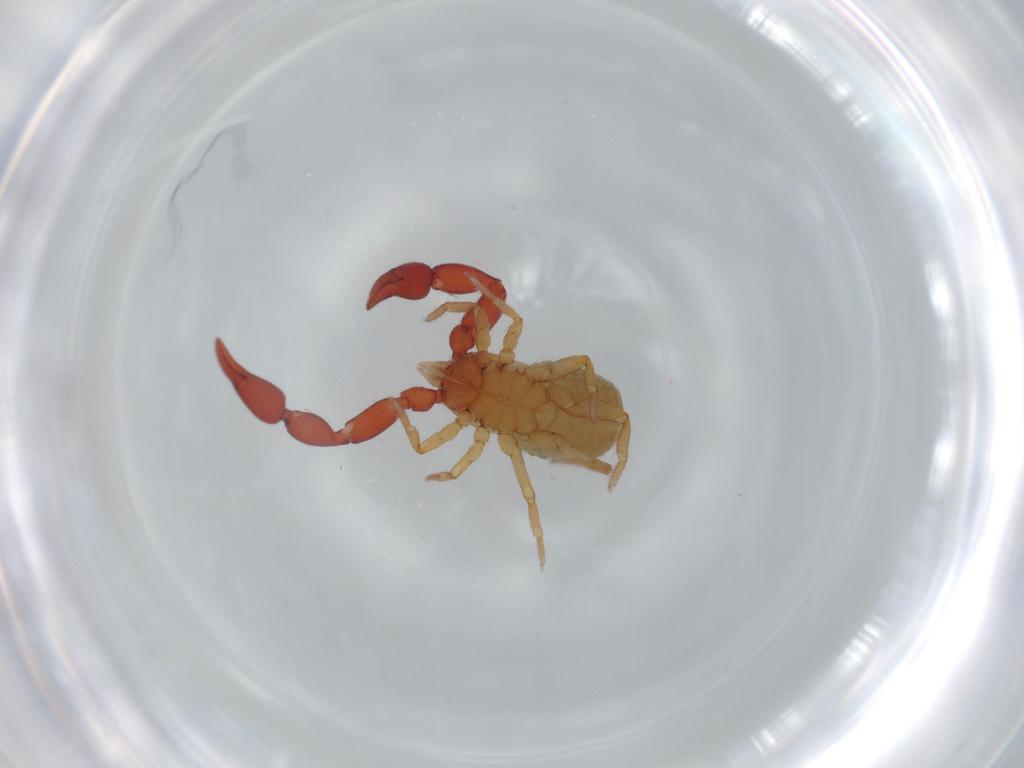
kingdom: Animalia
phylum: Arthropoda
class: Arachnida
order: Pseudoscorpiones
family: Chernetidae
